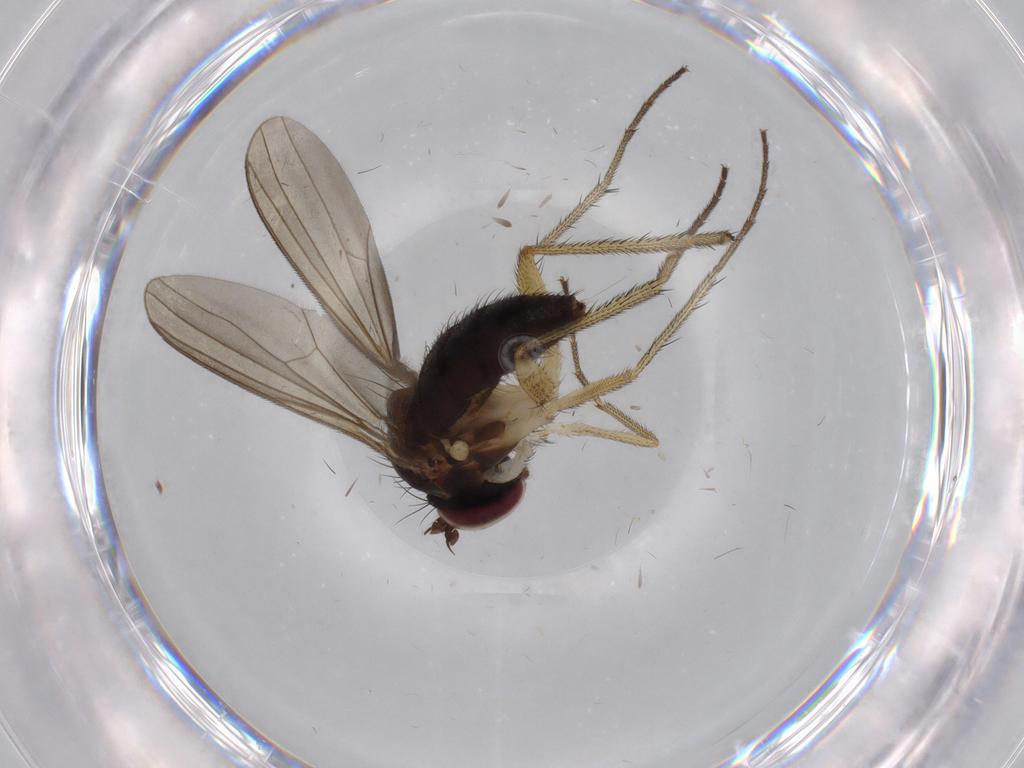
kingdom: Animalia
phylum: Arthropoda
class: Insecta
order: Diptera
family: Dolichopodidae
